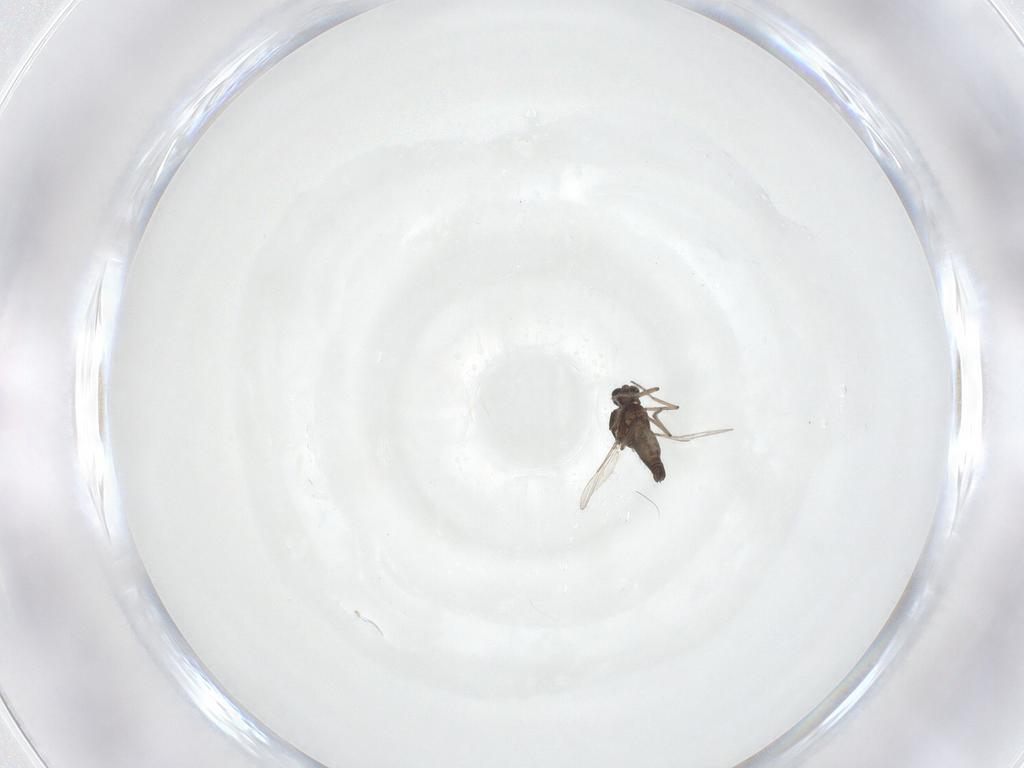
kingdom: Animalia
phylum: Arthropoda
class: Insecta
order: Diptera
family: Ceratopogonidae
